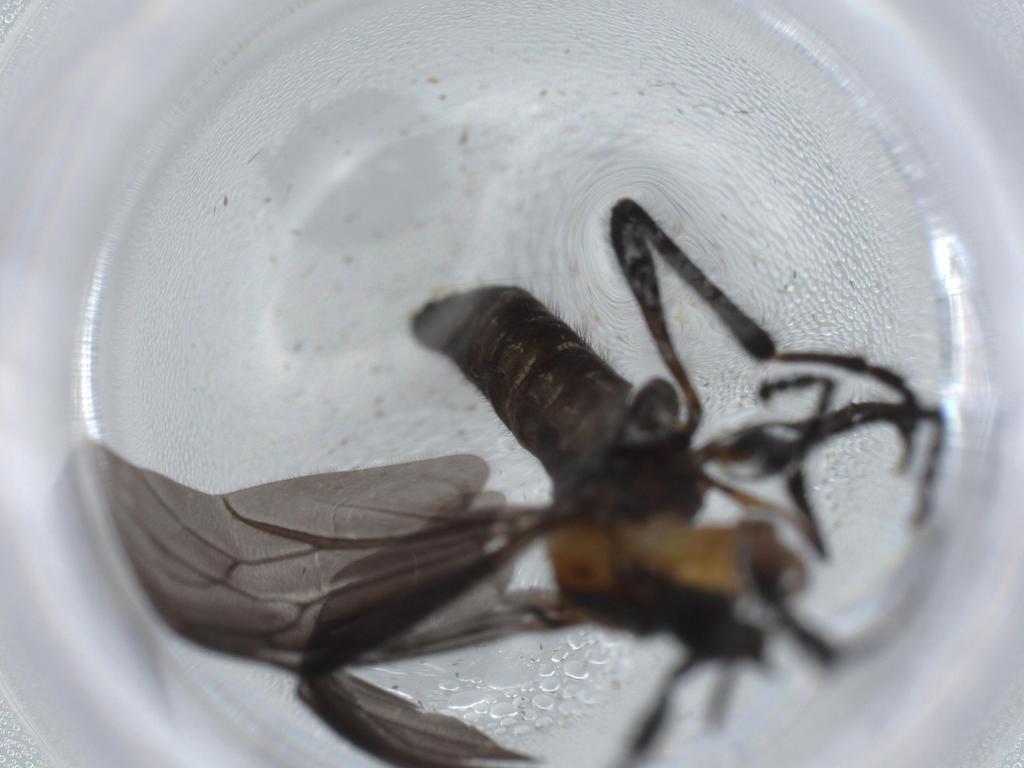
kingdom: Animalia
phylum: Arthropoda
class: Insecta
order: Diptera
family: Bibionidae
